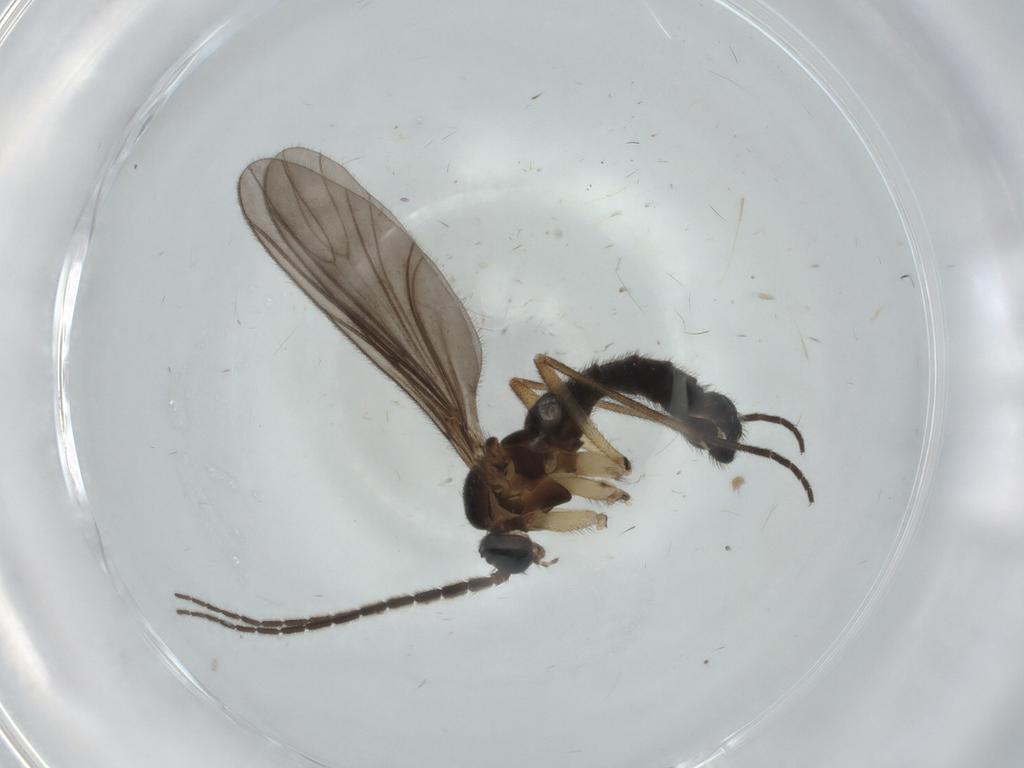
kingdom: Animalia
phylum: Arthropoda
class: Insecta
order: Diptera
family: Sciaridae
